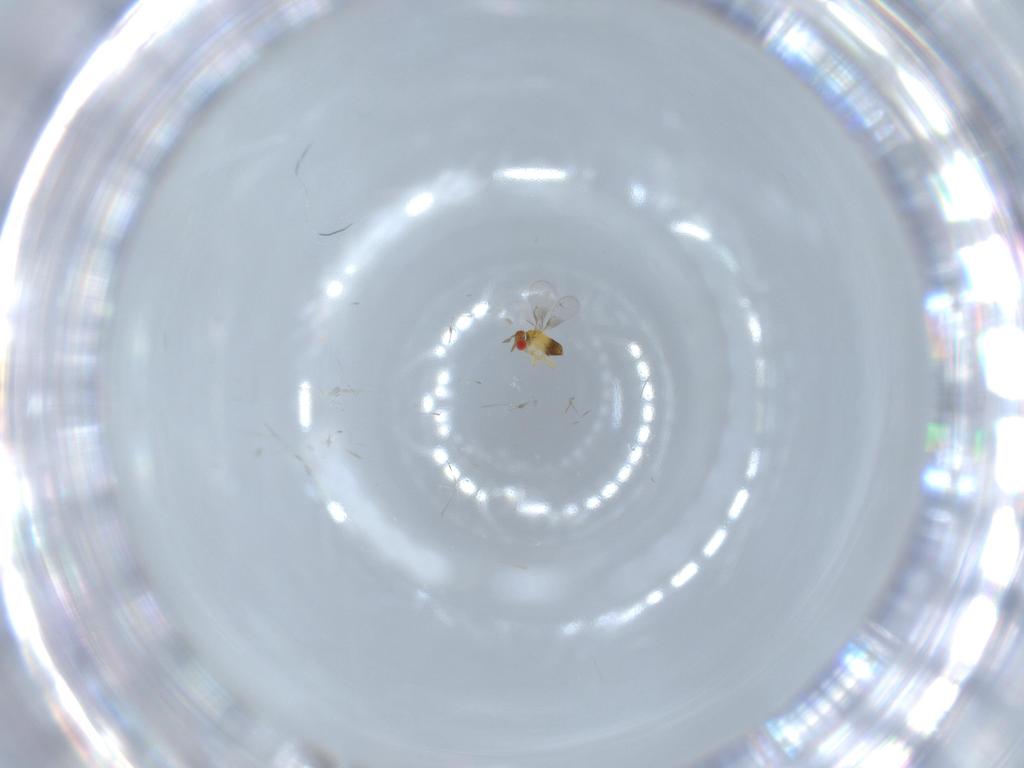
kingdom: Animalia
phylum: Arthropoda
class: Insecta
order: Hymenoptera
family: Trichogrammatidae
